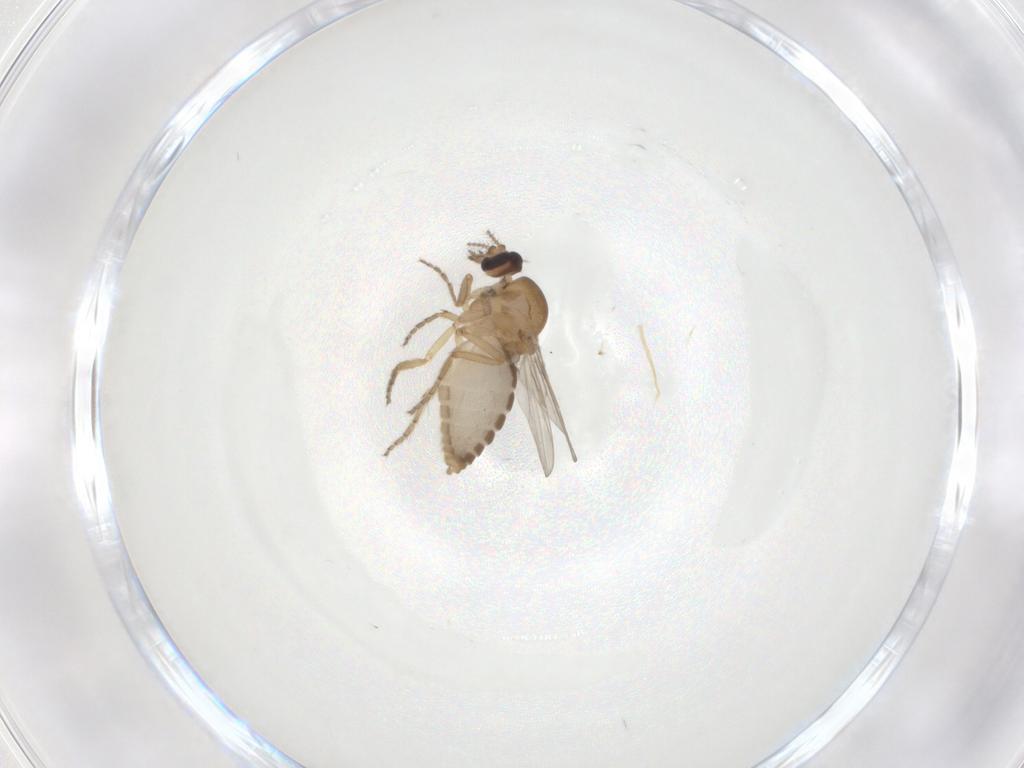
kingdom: Animalia
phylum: Arthropoda
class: Insecta
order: Diptera
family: Ceratopogonidae
